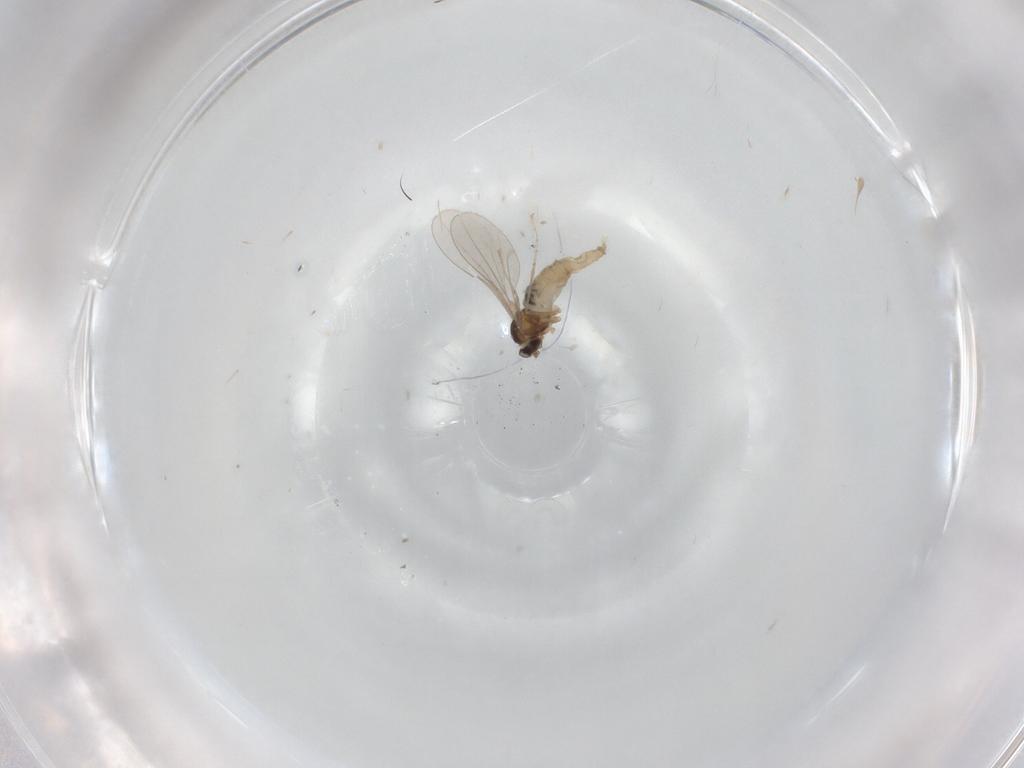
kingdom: Animalia
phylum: Arthropoda
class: Insecta
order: Diptera
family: Cecidomyiidae
